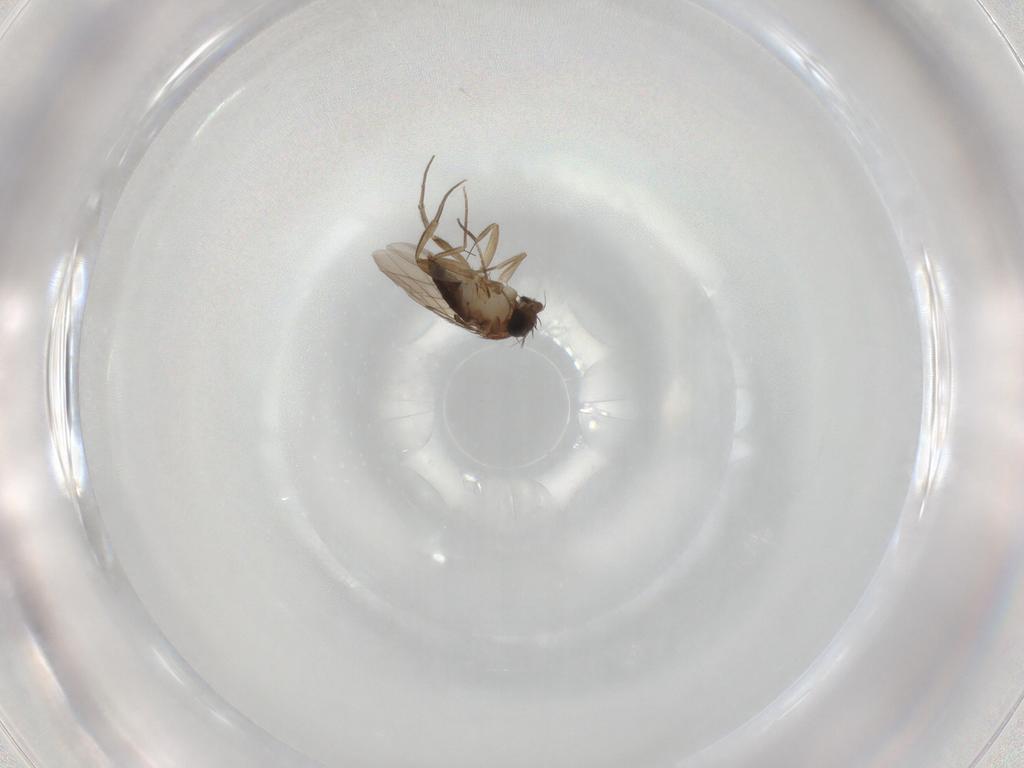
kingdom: Animalia
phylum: Arthropoda
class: Insecta
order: Diptera
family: Phoridae
